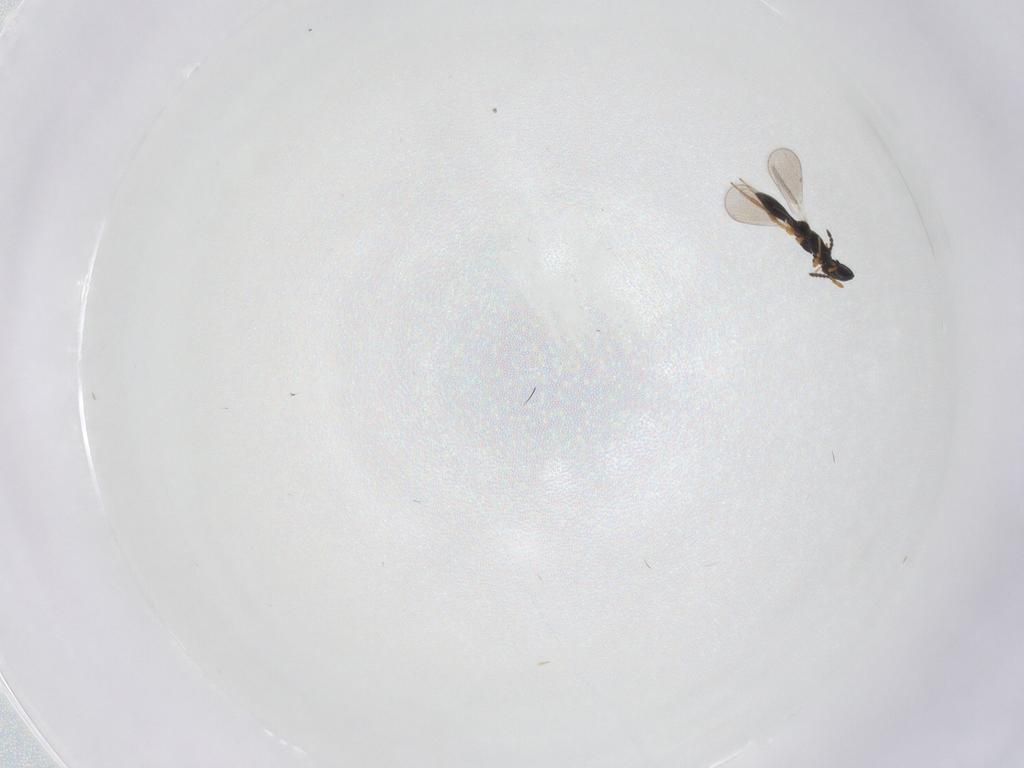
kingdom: Animalia
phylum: Arthropoda
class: Insecta
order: Hymenoptera
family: Platygastridae
